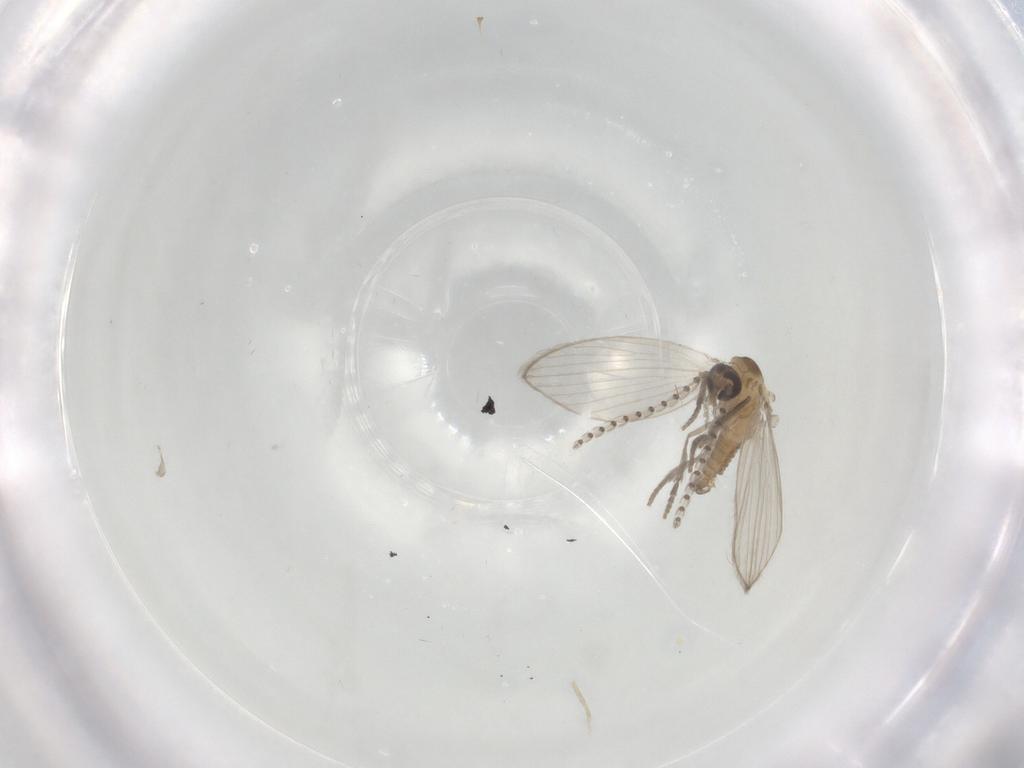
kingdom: Animalia
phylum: Arthropoda
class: Insecta
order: Diptera
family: Psychodidae
